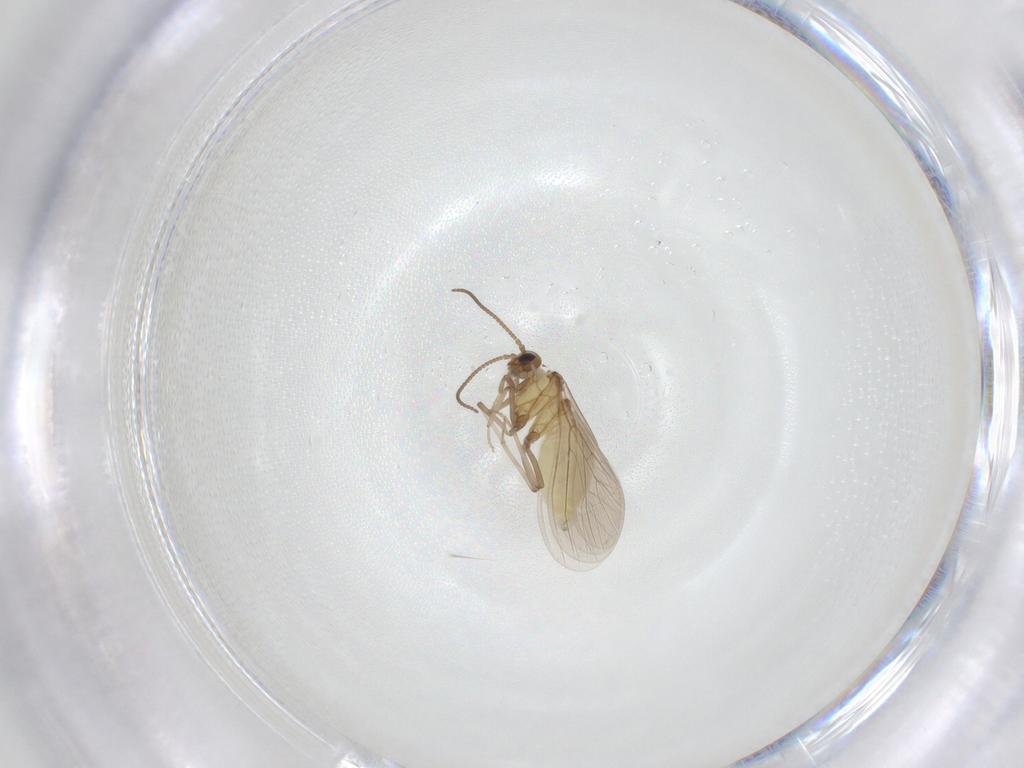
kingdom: Animalia
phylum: Arthropoda
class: Insecta
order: Neuroptera
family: Coniopterygidae
